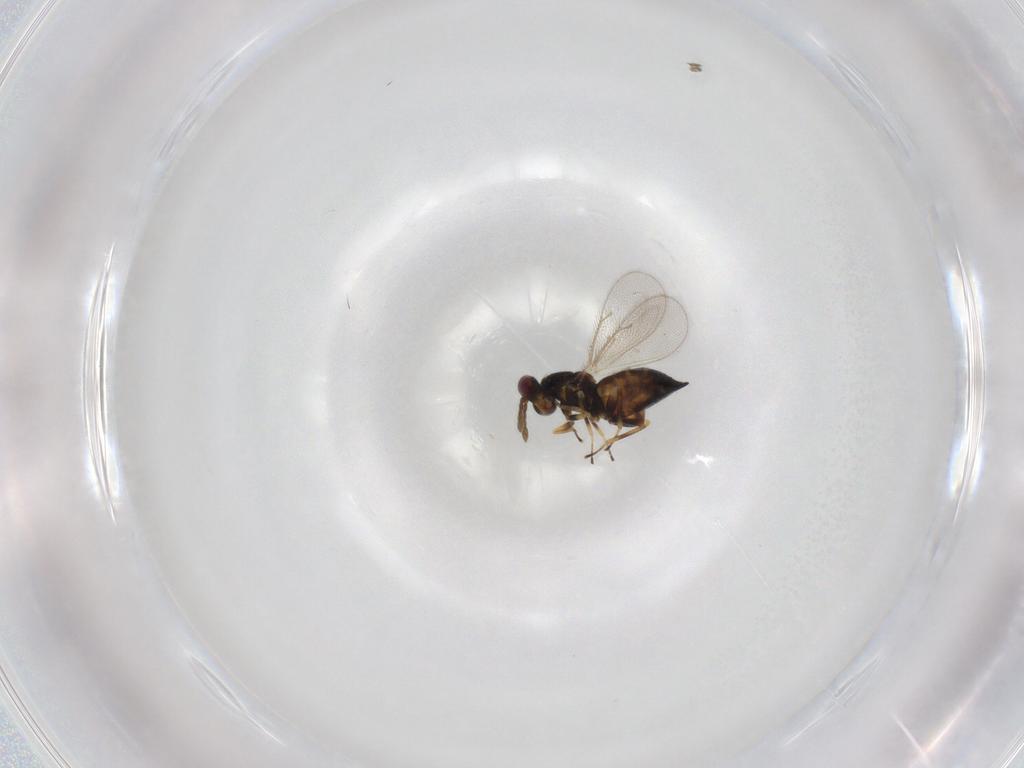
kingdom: Animalia
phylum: Arthropoda
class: Insecta
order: Hymenoptera
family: Eulophidae
